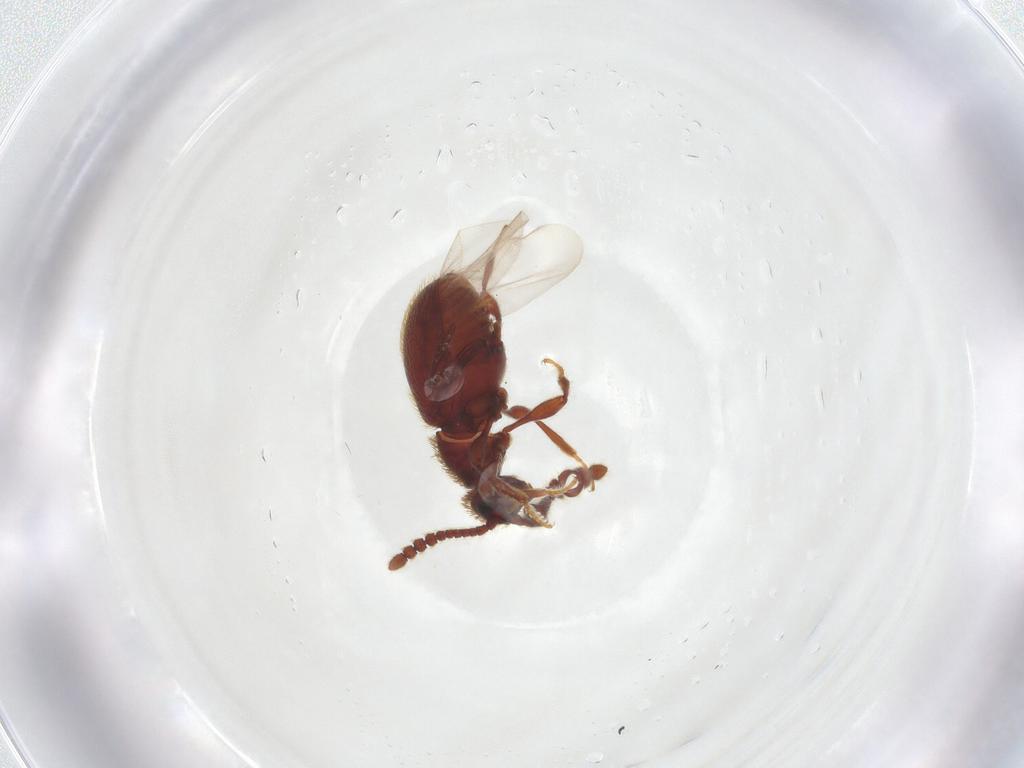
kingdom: Animalia
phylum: Arthropoda
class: Insecta
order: Coleoptera
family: Staphylinidae
